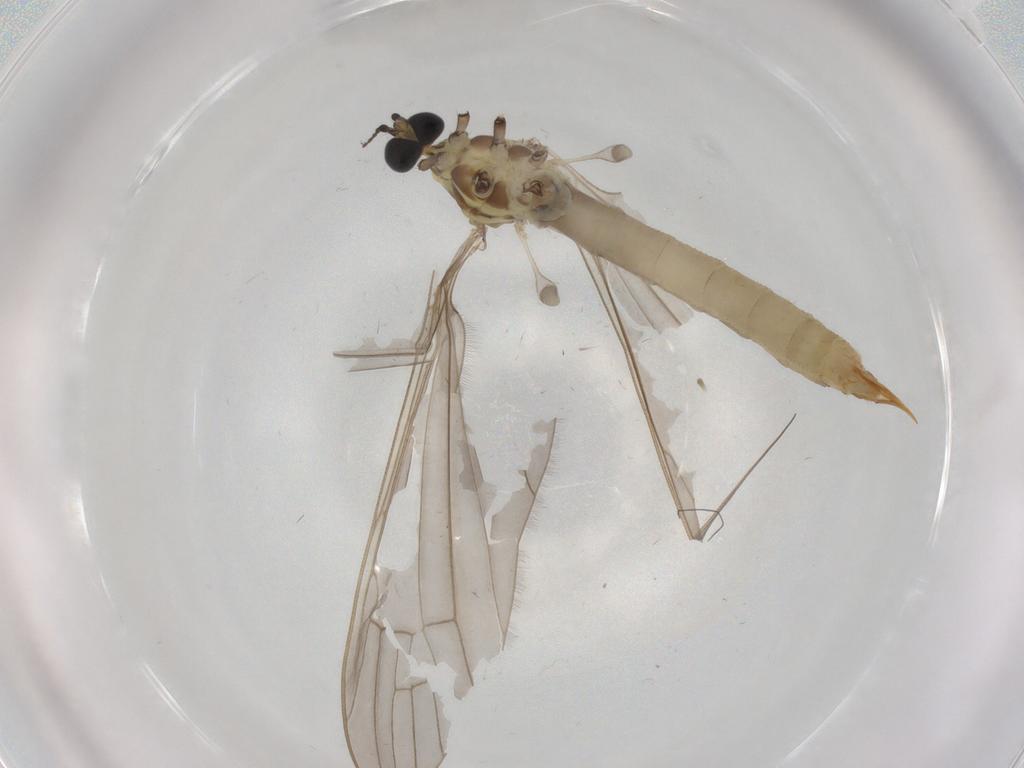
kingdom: Animalia
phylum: Arthropoda
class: Insecta
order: Diptera
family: Chironomidae
